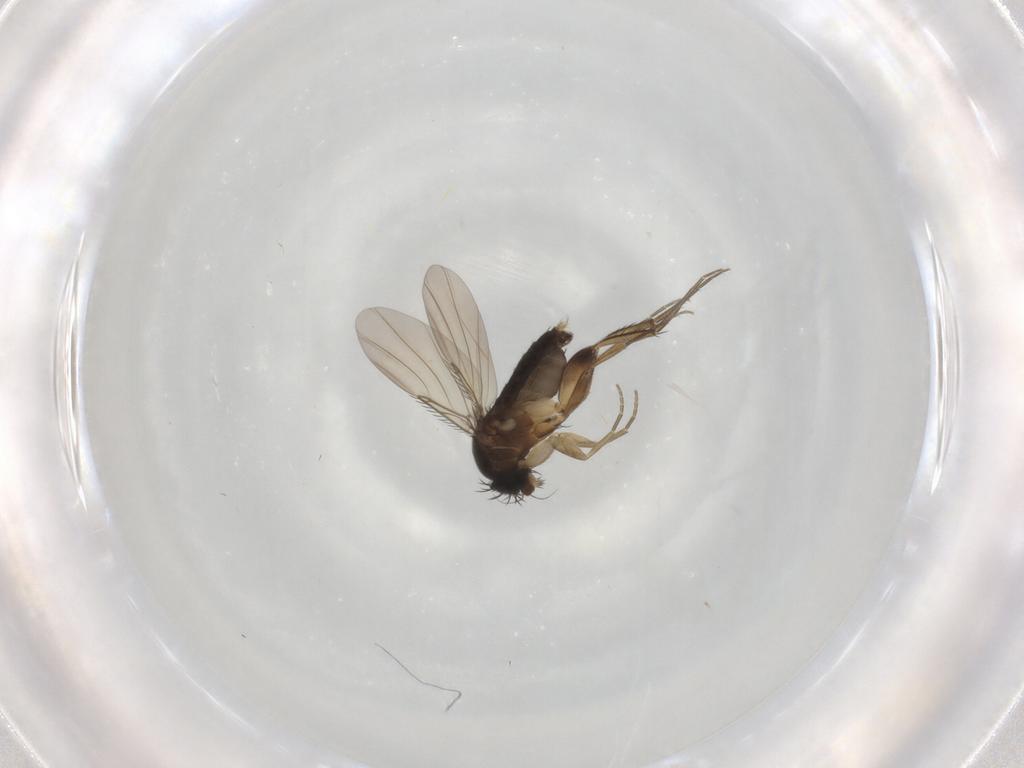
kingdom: Animalia
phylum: Arthropoda
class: Insecta
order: Diptera
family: Phoridae
